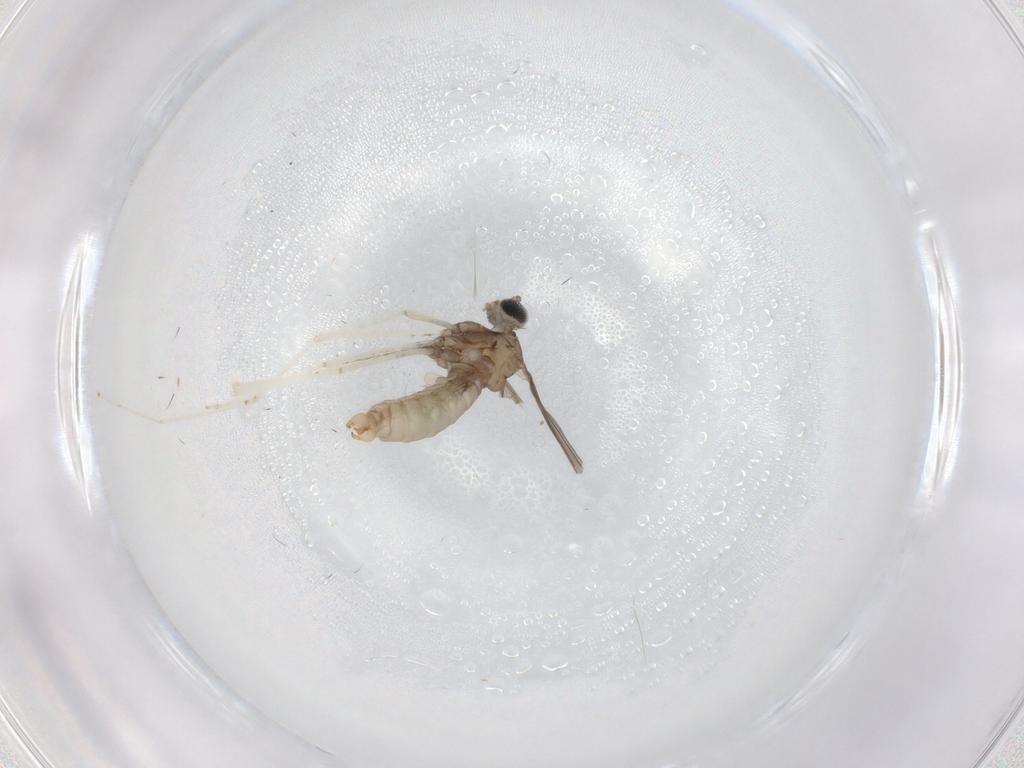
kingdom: Animalia
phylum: Arthropoda
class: Insecta
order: Diptera
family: Cecidomyiidae
